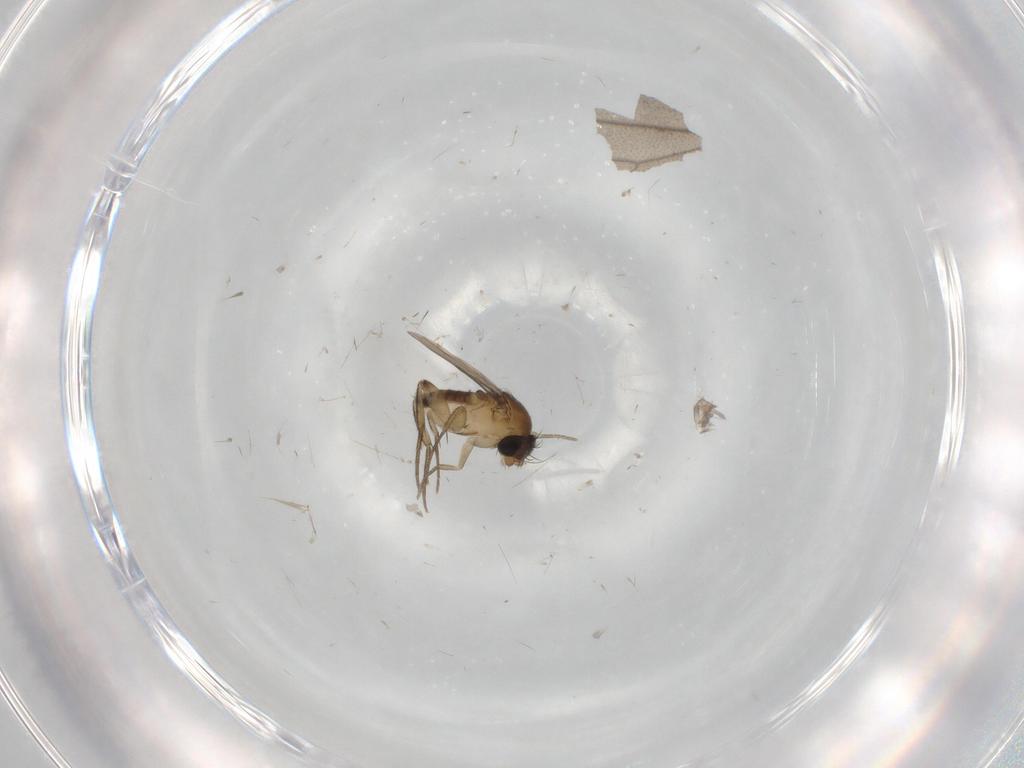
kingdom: Animalia
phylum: Arthropoda
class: Insecta
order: Diptera
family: Phoridae
